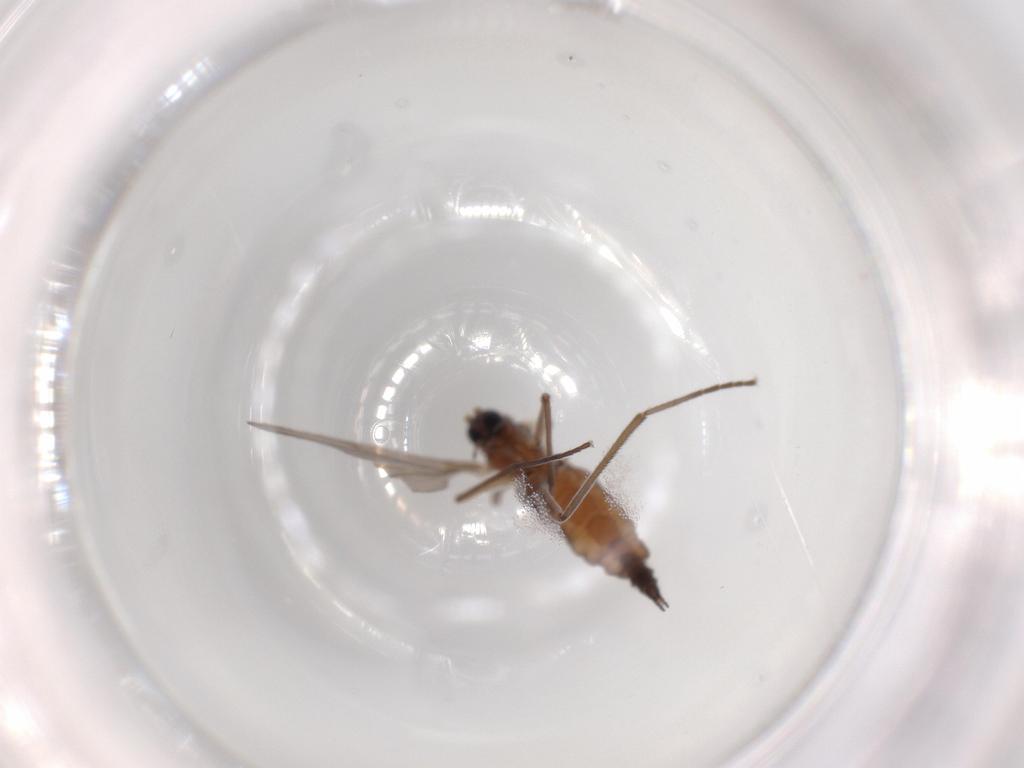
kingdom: Animalia
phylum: Arthropoda
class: Insecta
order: Diptera
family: Sciaridae
